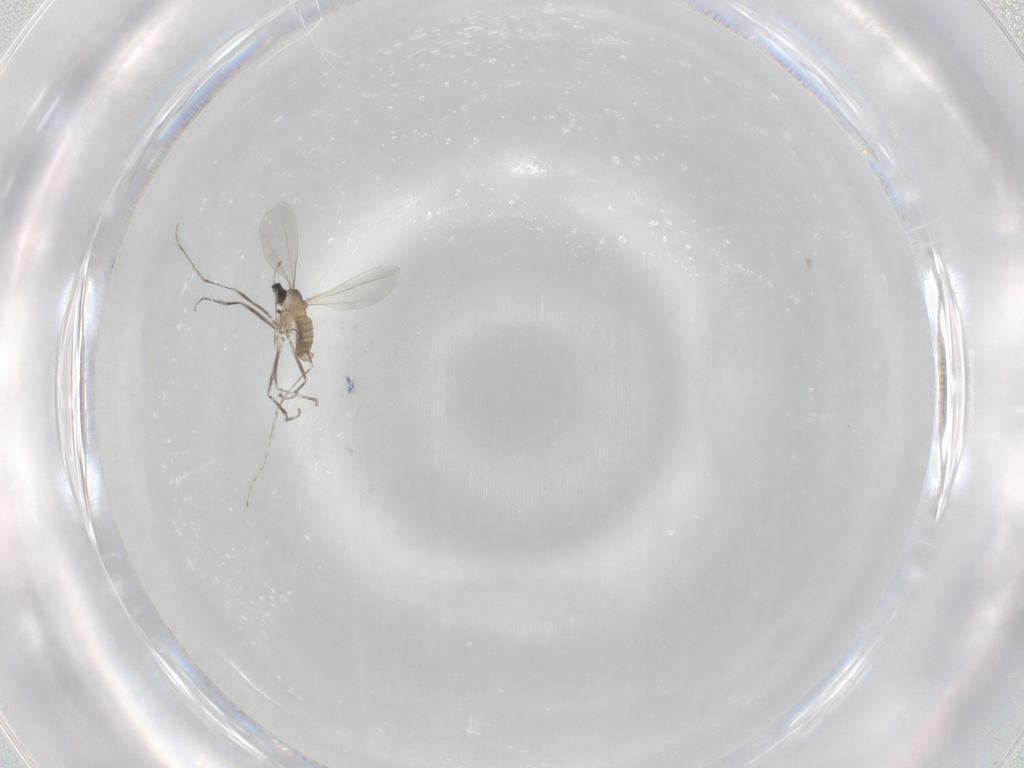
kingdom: Animalia
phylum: Arthropoda
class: Insecta
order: Diptera
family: Cecidomyiidae
